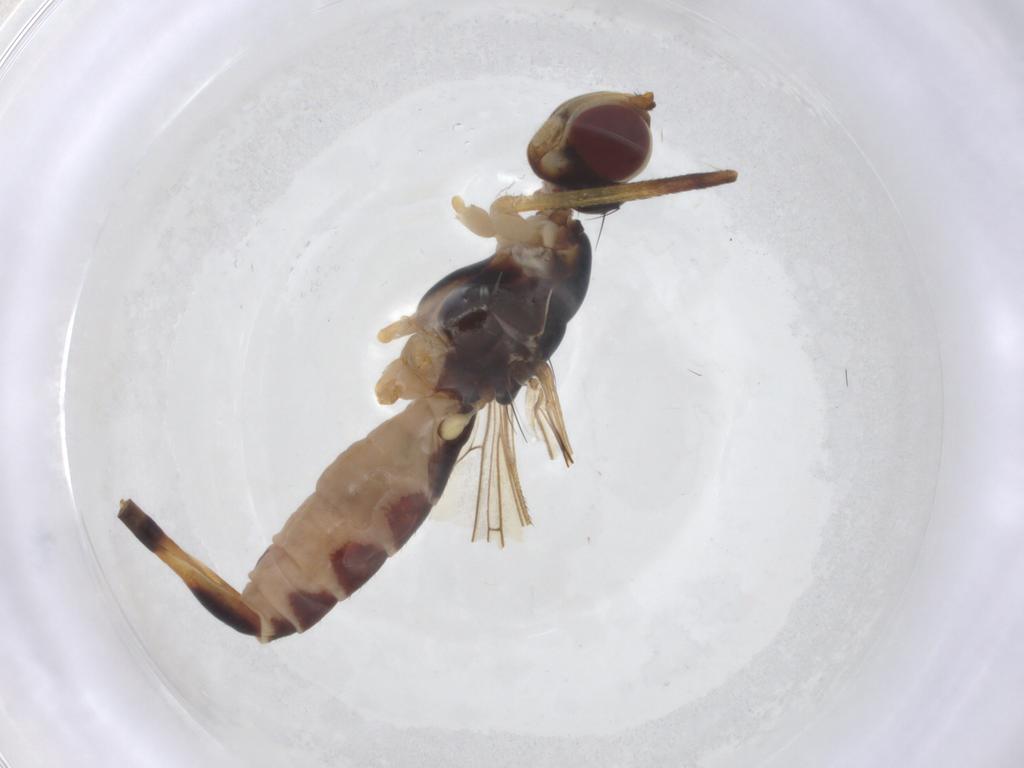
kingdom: Animalia
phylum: Arthropoda
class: Insecta
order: Diptera
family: Micropezidae
